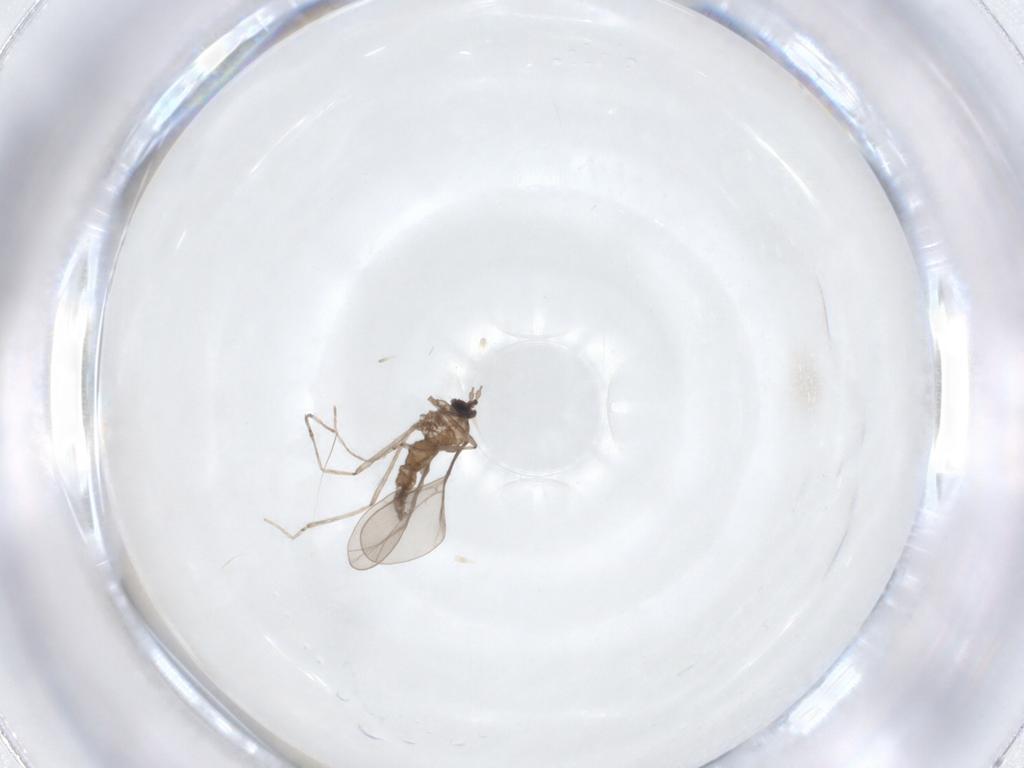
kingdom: Animalia
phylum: Arthropoda
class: Insecta
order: Diptera
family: Cecidomyiidae
